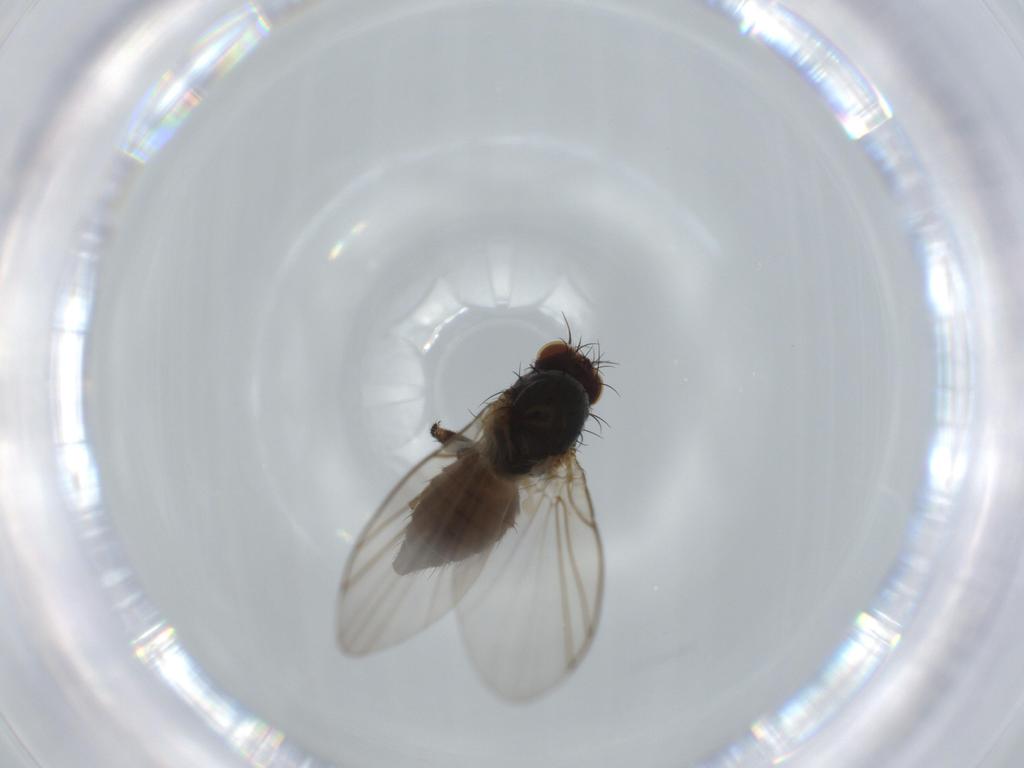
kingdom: Animalia
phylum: Arthropoda
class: Insecta
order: Diptera
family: Agromyzidae
